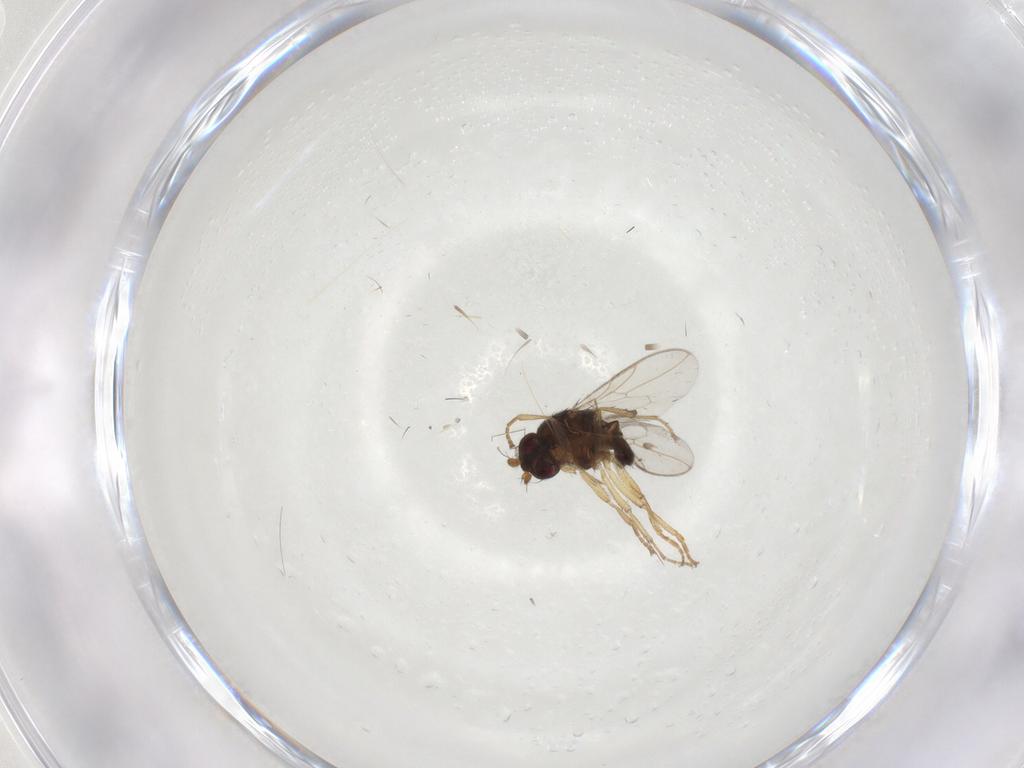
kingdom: Animalia
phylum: Arthropoda
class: Insecta
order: Diptera
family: Sphaeroceridae
